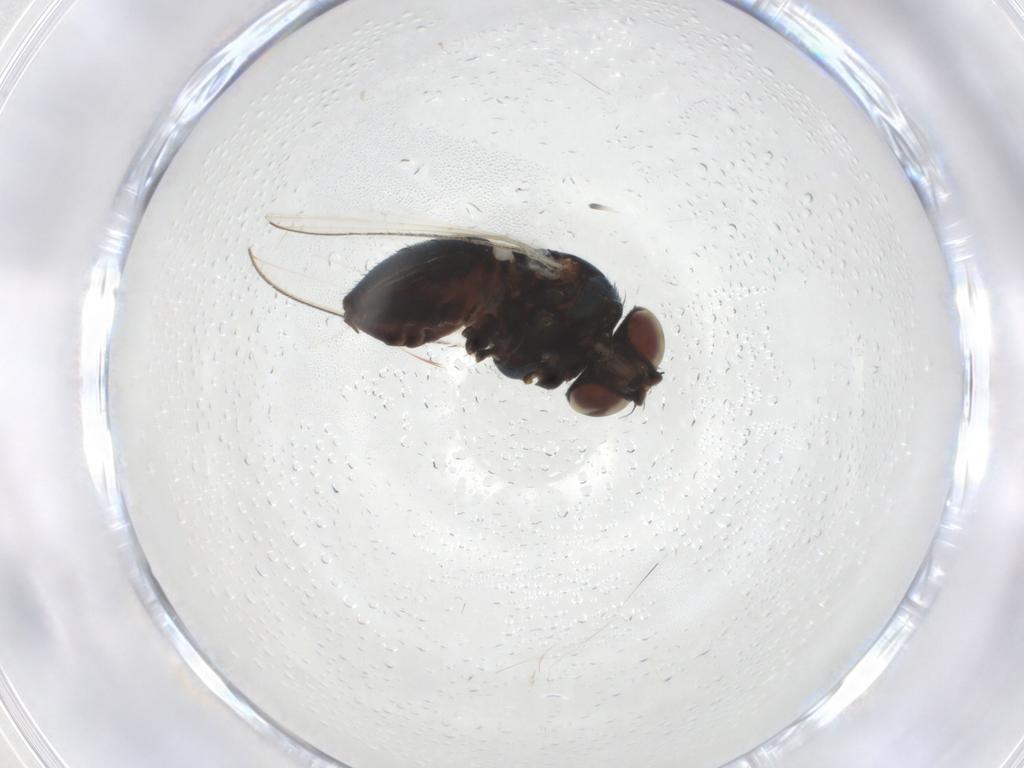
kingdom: Animalia
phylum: Arthropoda
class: Insecta
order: Diptera
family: Milichiidae
